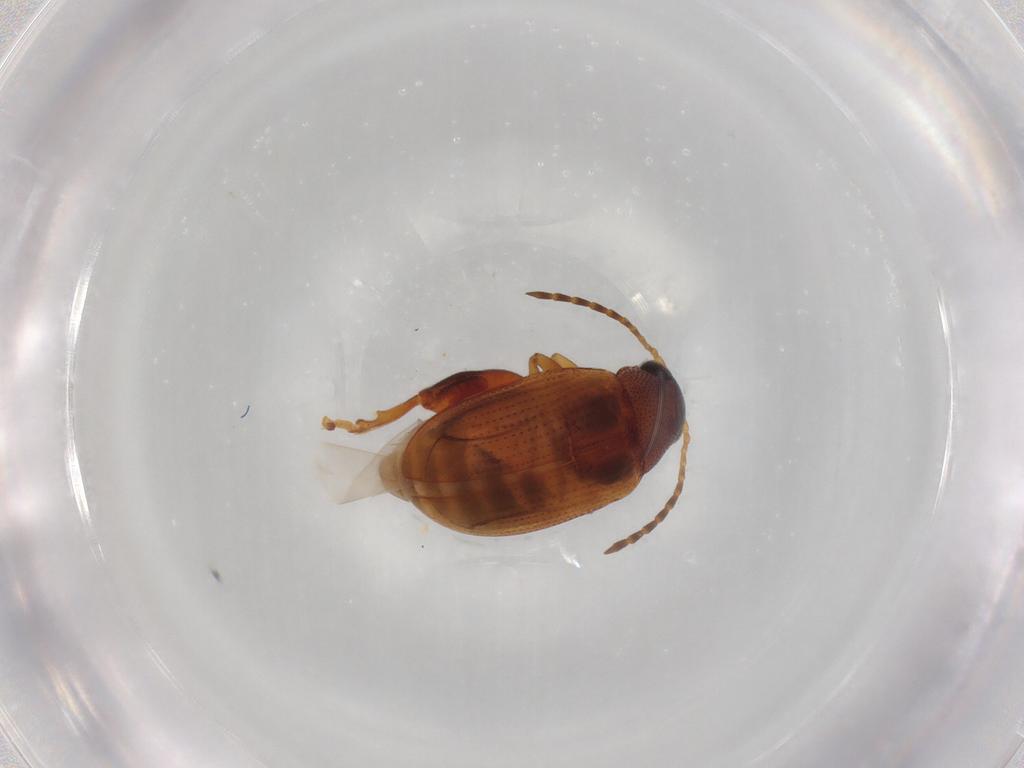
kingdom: Animalia
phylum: Arthropoda
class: Insecta
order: Coleoptera
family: Chrysomelidae
